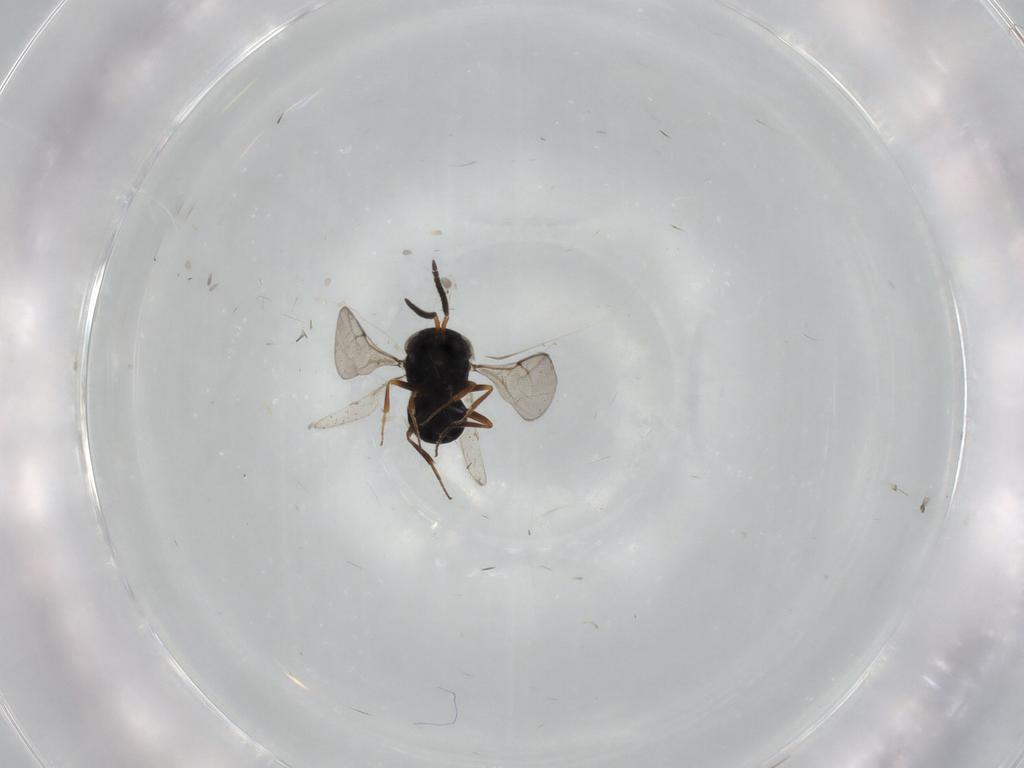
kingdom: Animalia
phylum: Arthropoda
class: Insecta
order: Hymenoptera
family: Scelionidae
